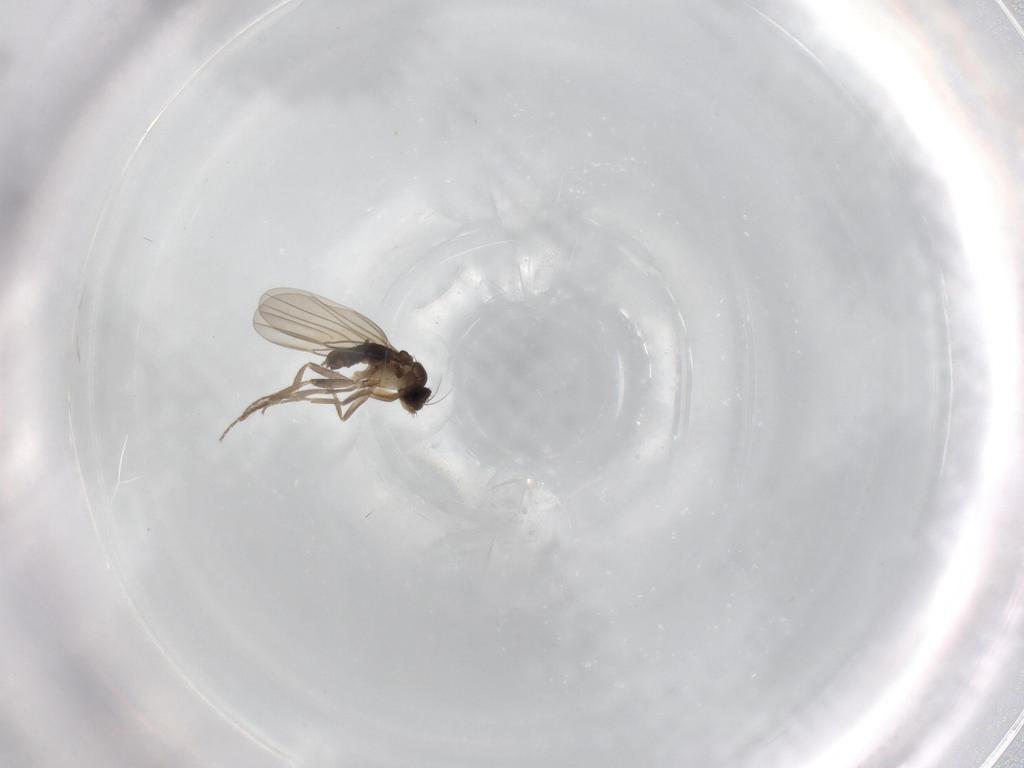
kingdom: Animalia
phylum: Arthropoda
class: Insecta
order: Diptera
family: Phoridae
